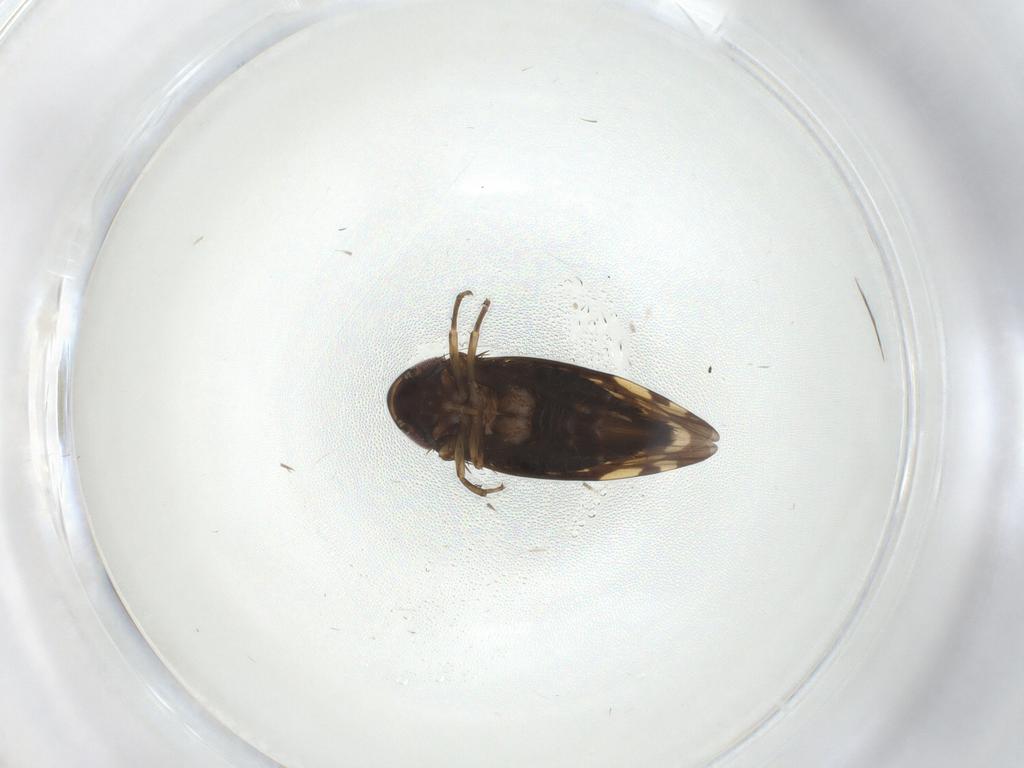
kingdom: Animalia
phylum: Arthropoda
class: Insecta
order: Hemiptera
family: Cicadellidae
